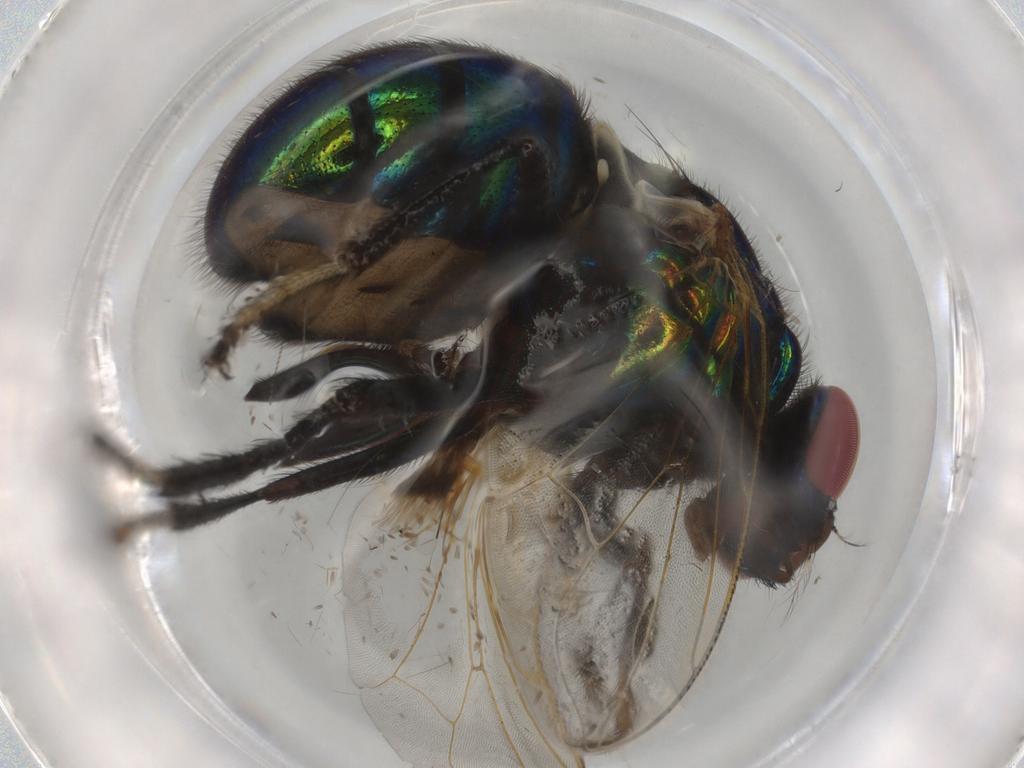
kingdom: Animalia
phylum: Arthropoda
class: Insecta
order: Diptera
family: Muscidae
